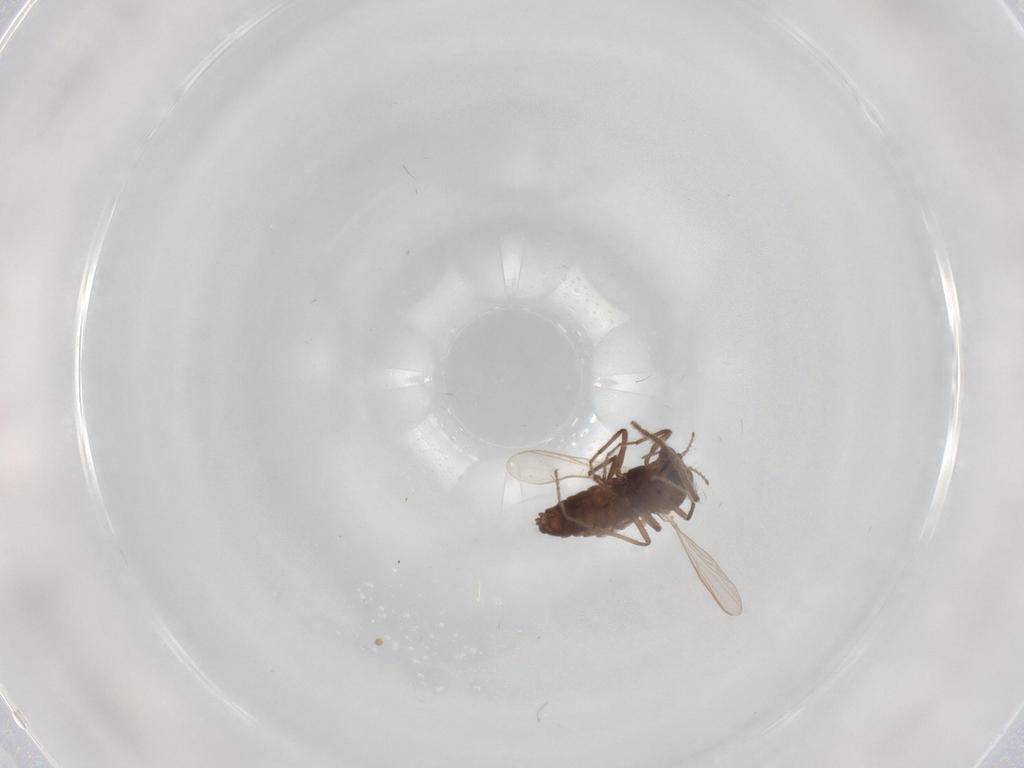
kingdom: Animalia
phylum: Arthropoda
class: Insecta
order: Diptera
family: Chironomidae
